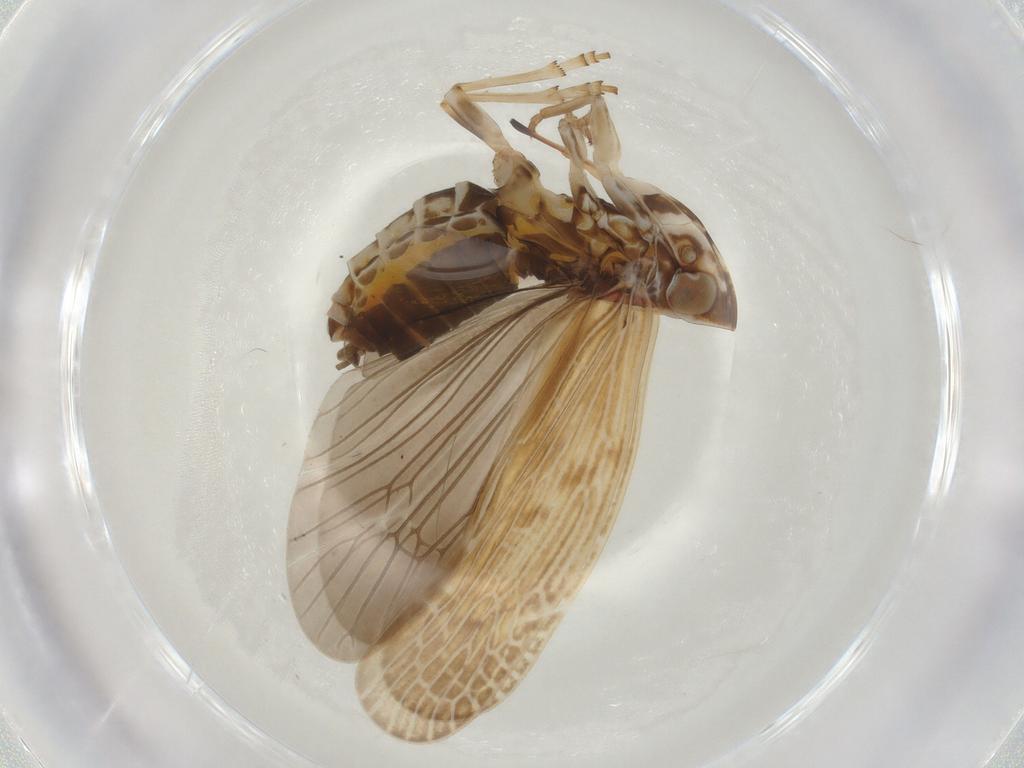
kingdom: Animalia
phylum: Arthropoda
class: Insecta
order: Hemiptera
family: Achilidae
